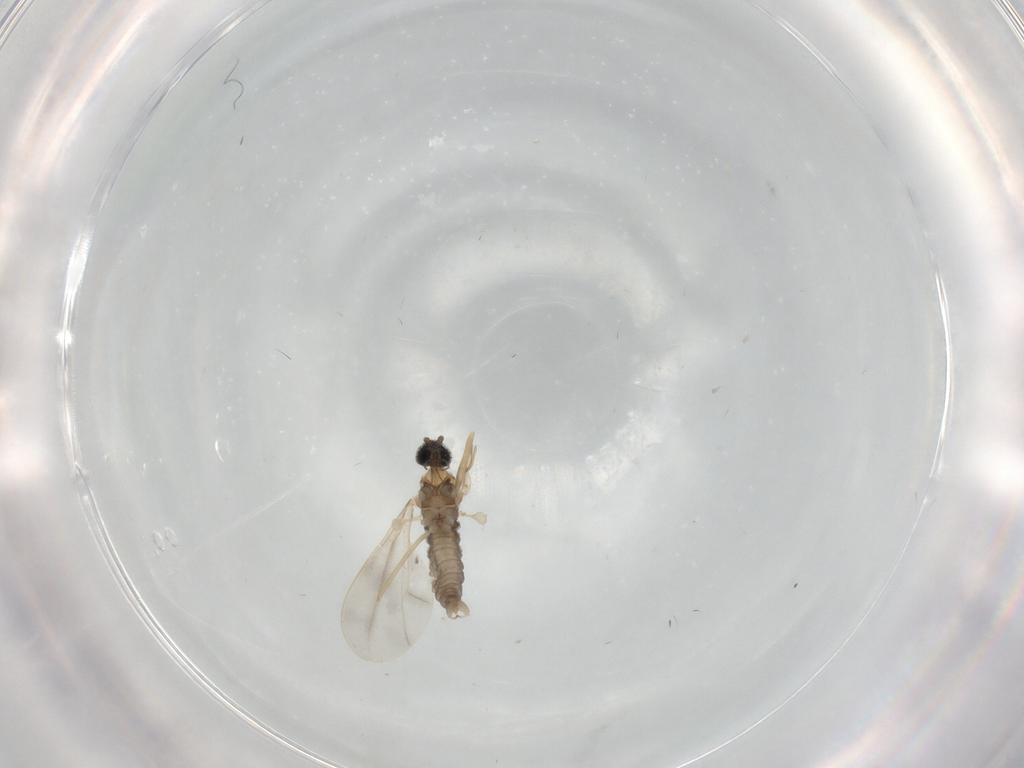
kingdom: Animalia
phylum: Arthropoda
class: Insecta
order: Diptera
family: Cecidomyiidae
